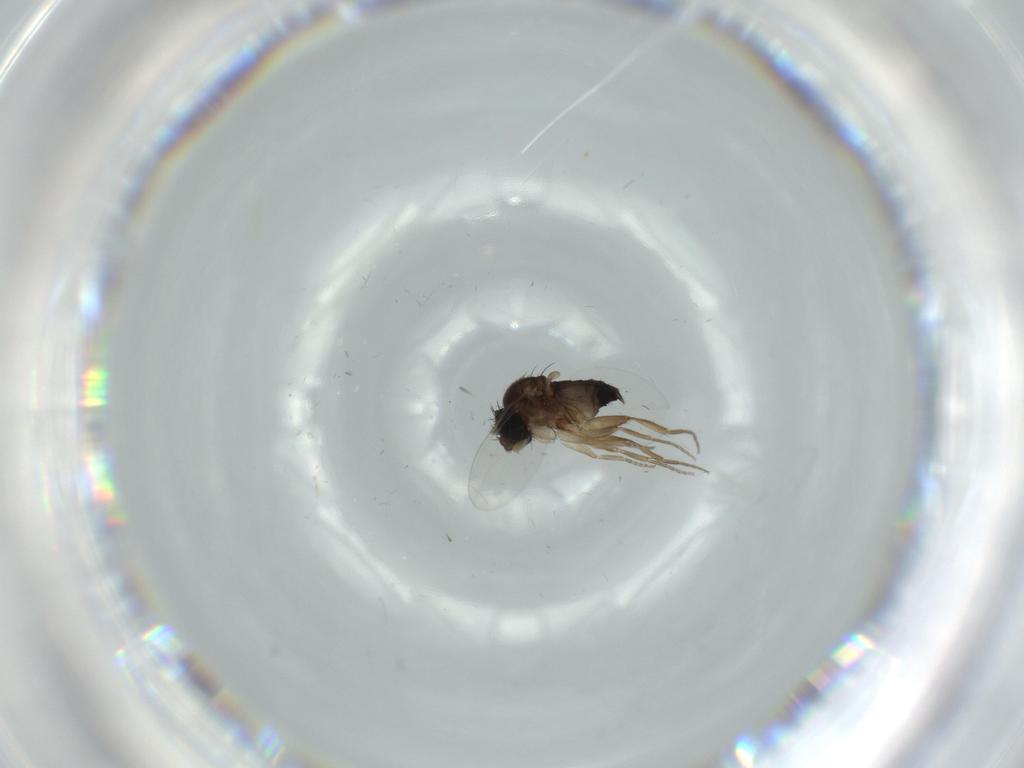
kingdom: Animalia
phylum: Arthropoda
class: Insecta
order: Diptera
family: Phoridae
